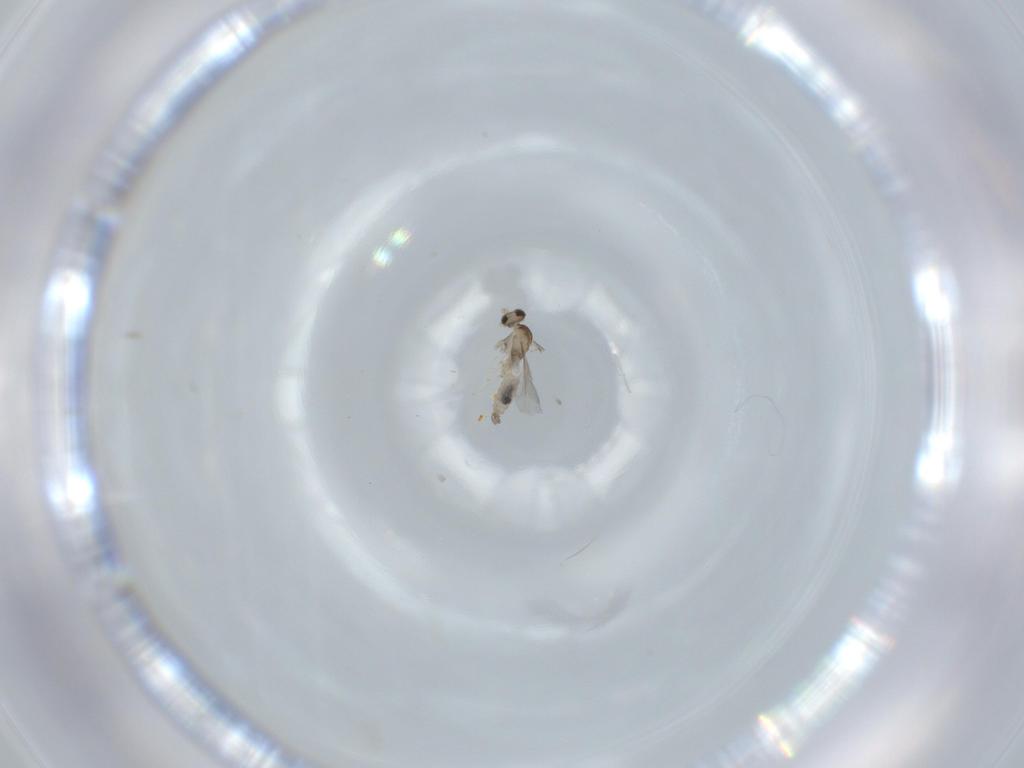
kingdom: Animalia
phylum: Arthropoda
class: Insecta
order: Diptera
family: Cecidomyiidae
